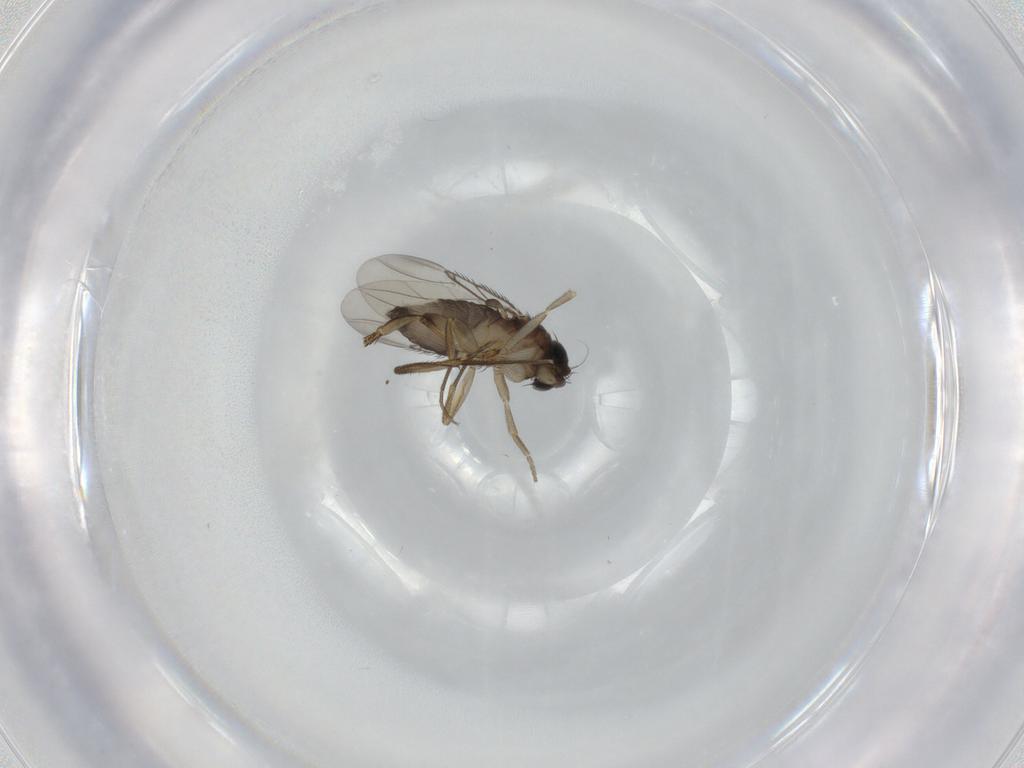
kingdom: Animalia
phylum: Arthropoda
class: Insecta
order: Diptera
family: Phoridae
